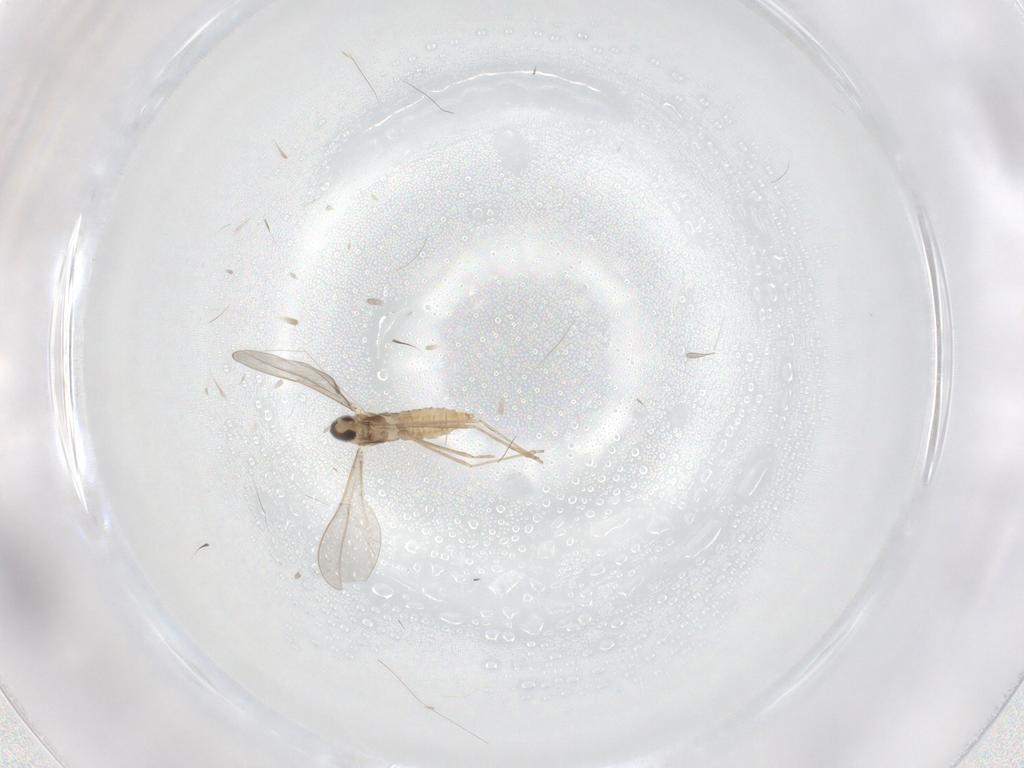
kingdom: Animalia
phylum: Arthropoda
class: Insecta
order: Diptera
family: Cecidomyiidae
